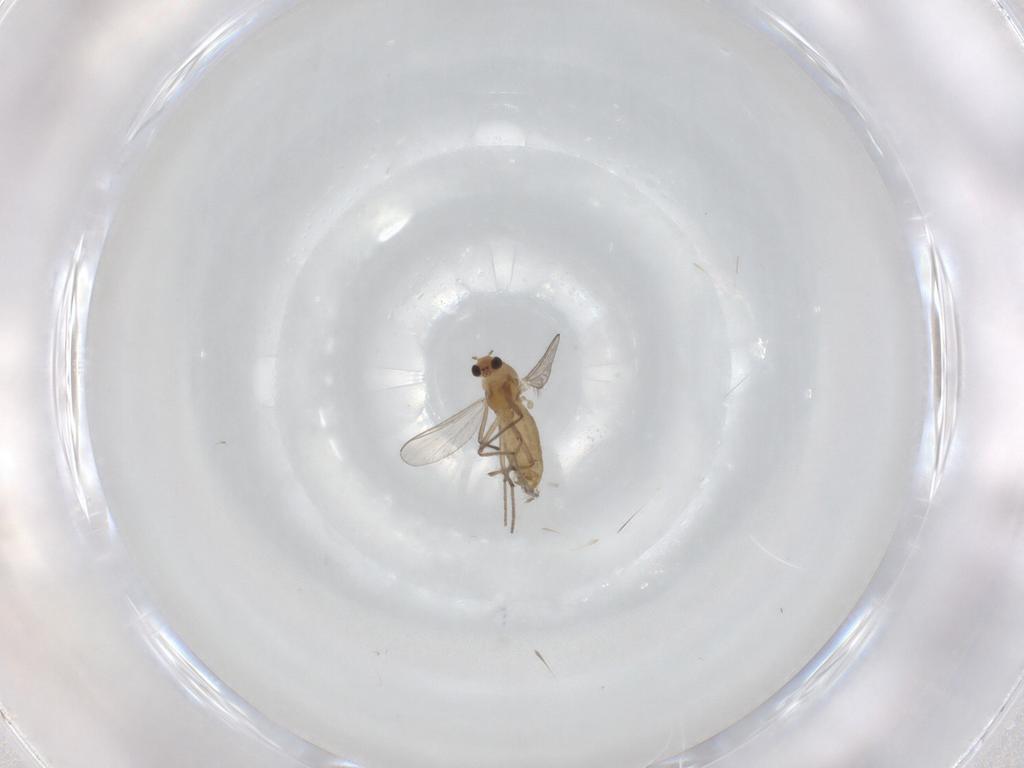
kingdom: Animalia
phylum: Arthropoda
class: Insecta
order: Diptera
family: Chironomidae
